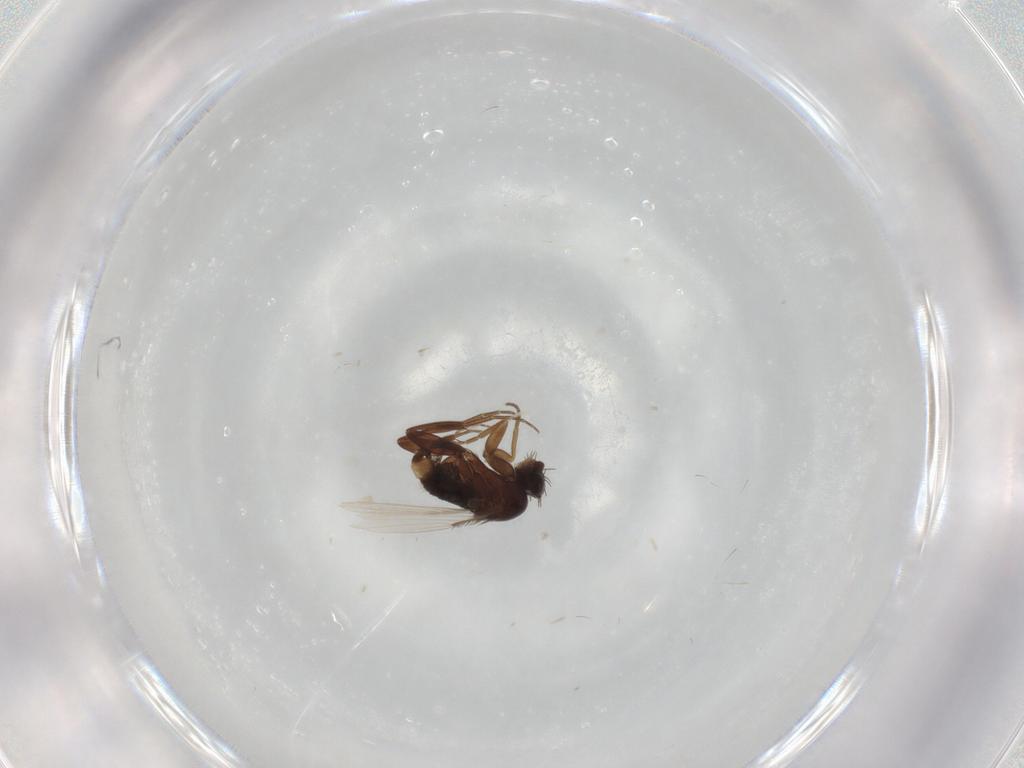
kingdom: Animalia
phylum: Arthropoda
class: Insecta
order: Diptera
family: Phoridae
